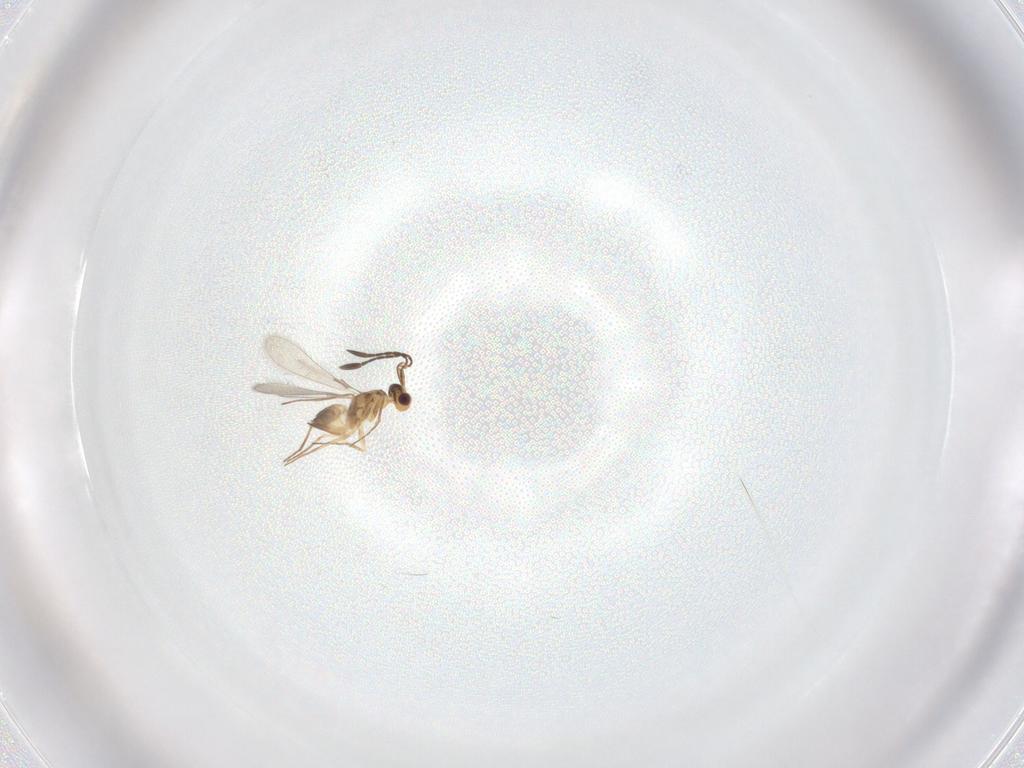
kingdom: Animalia
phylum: Arthropoda
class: Insecta
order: Hymenoptera
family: Mymaridae
